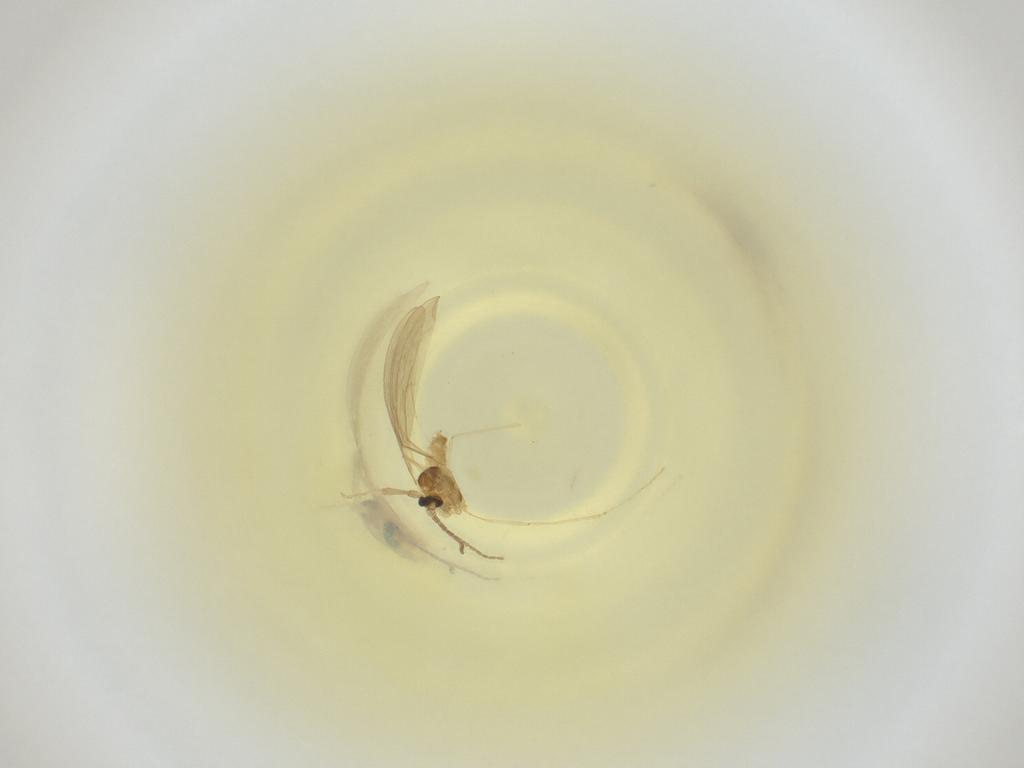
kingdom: Animalia
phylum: Arthropoda
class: Insecta
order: Diptera
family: Cecidomyiidae
